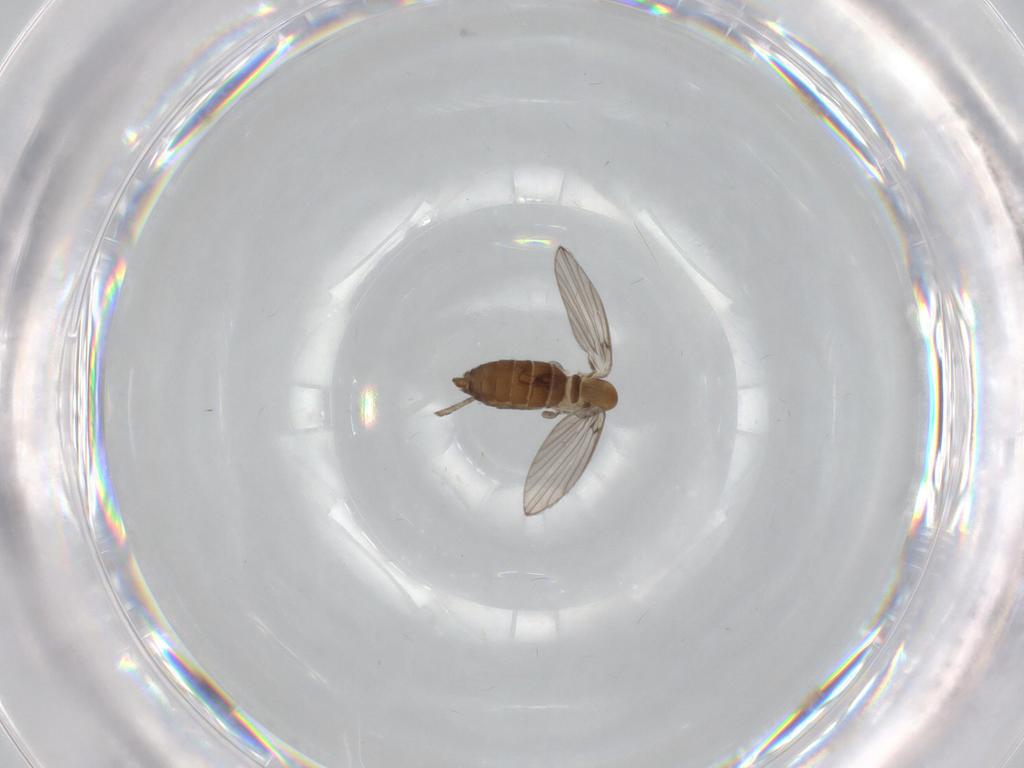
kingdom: Animalia
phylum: Arthropoda
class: Insecta
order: Diptera
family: Psychodidae
